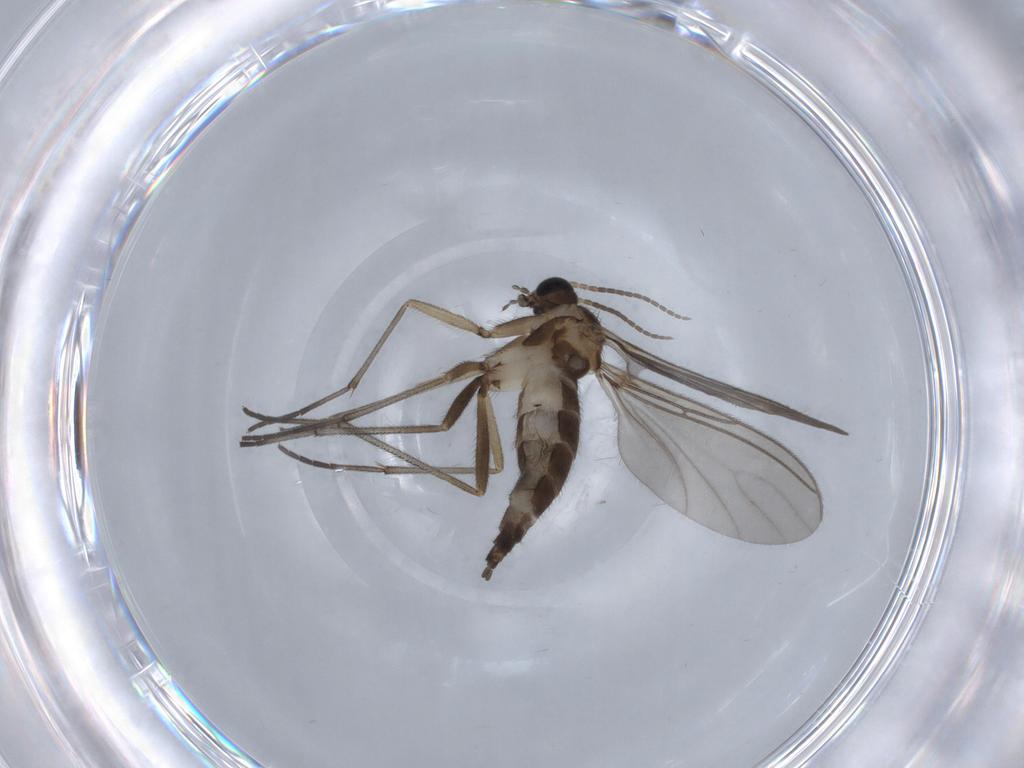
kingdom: Animalia
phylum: Arthropoda
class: Insecta
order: Diptera
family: Sciaridae
